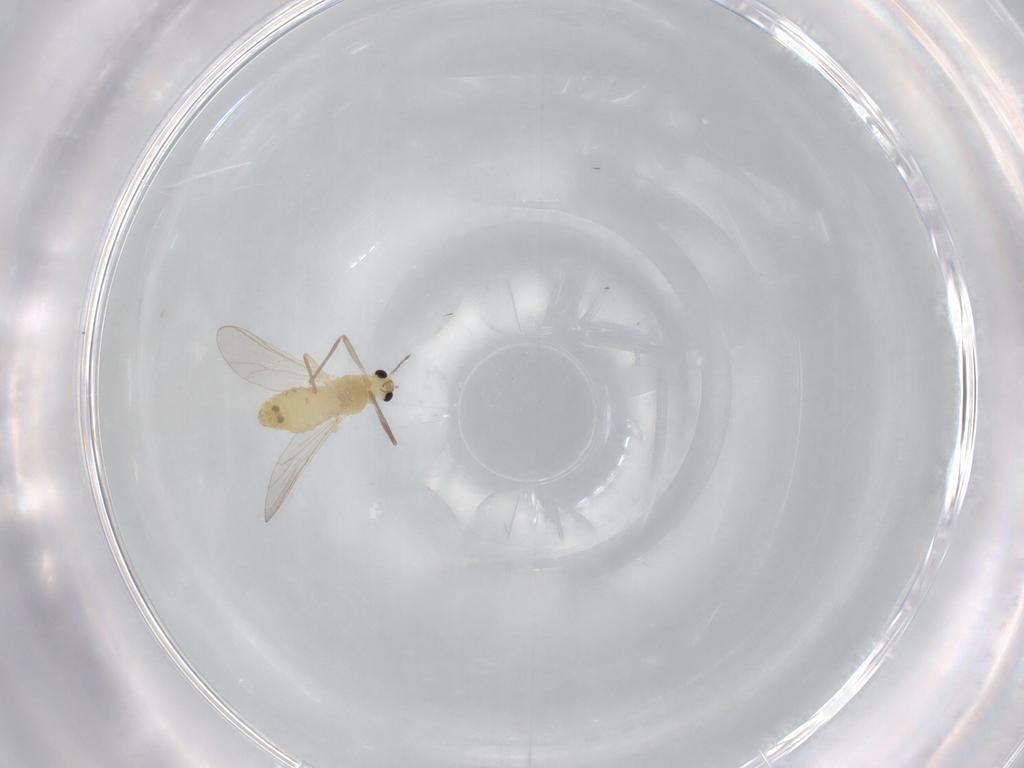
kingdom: Animalia
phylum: Arthropoda
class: Insecta
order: Diptera
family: Chironomidae
